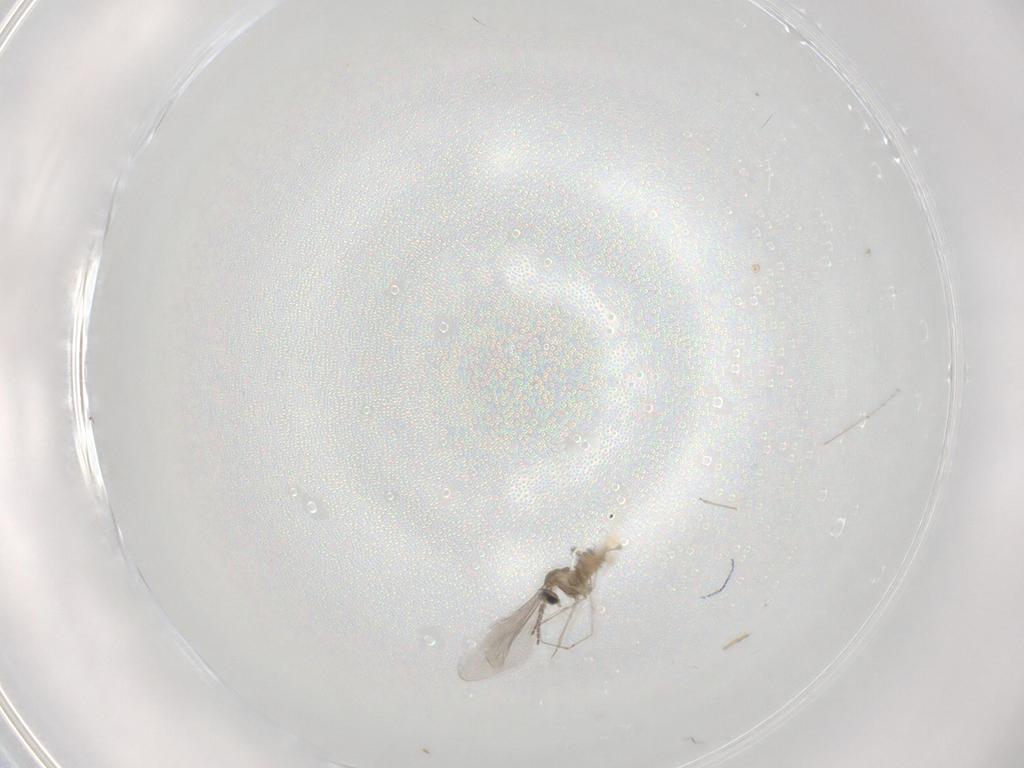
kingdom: Animalia
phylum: Arthropoda
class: Insecta
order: Diptera
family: Cecidomyiidae
